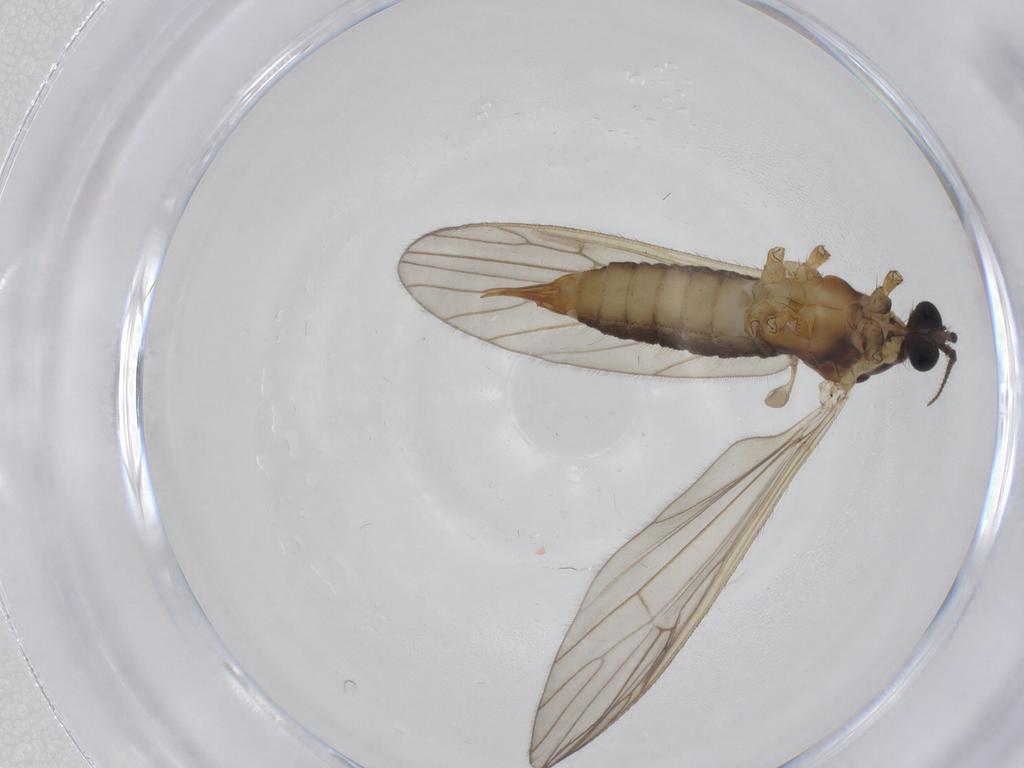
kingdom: Animalia
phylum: Arthropoda
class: Insecta
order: Diptera
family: Agromyzidae
